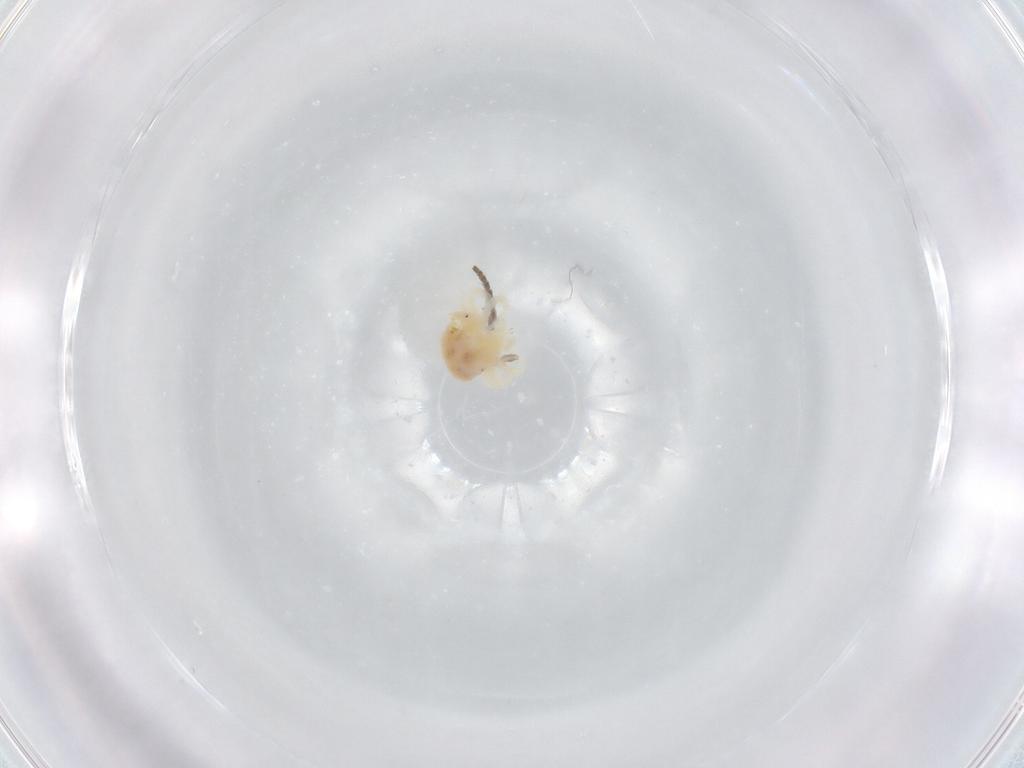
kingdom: Animalia
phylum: Arthropoda
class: Arachnida
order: Trombidiformes
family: Anystidae
